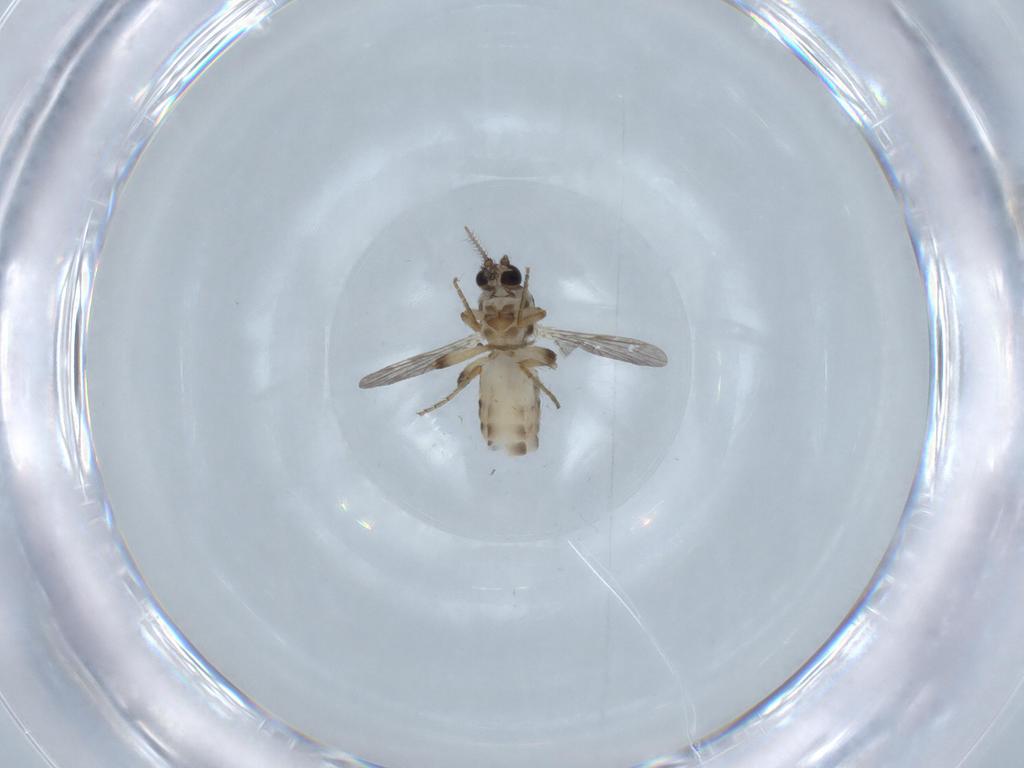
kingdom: Animalia
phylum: Arthropoda
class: Insecta
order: Diptera
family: Ceratopogonidae
